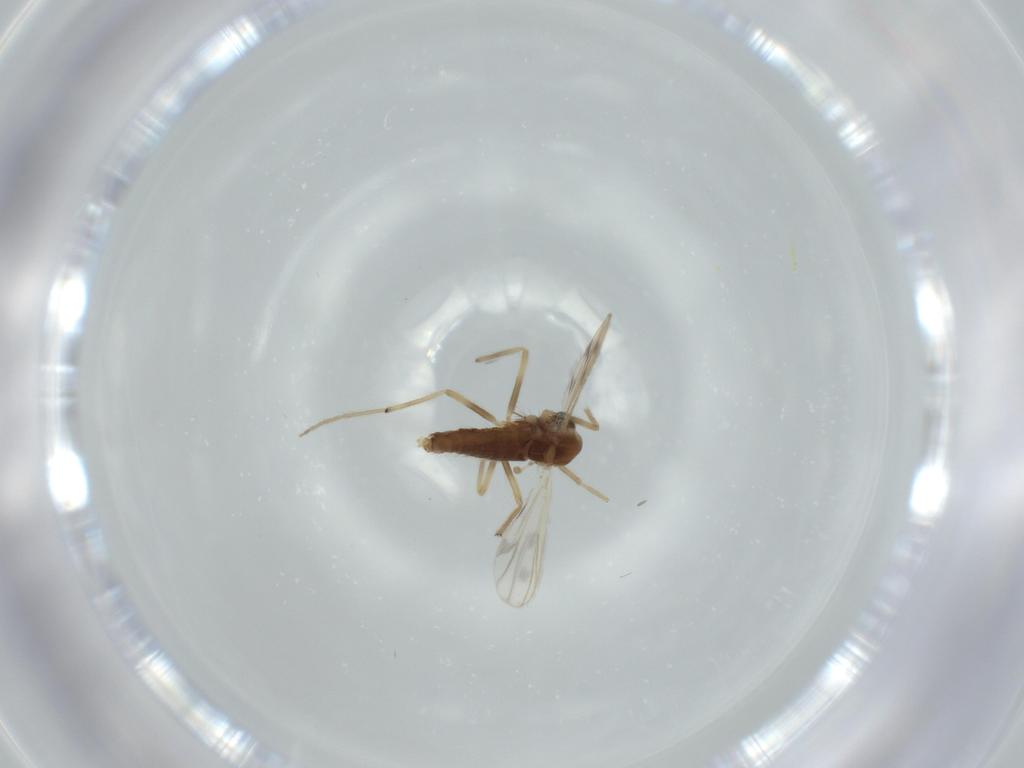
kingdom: Animalia
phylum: Arthropoda
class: Insecta
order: Diptera
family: Chironomidae
